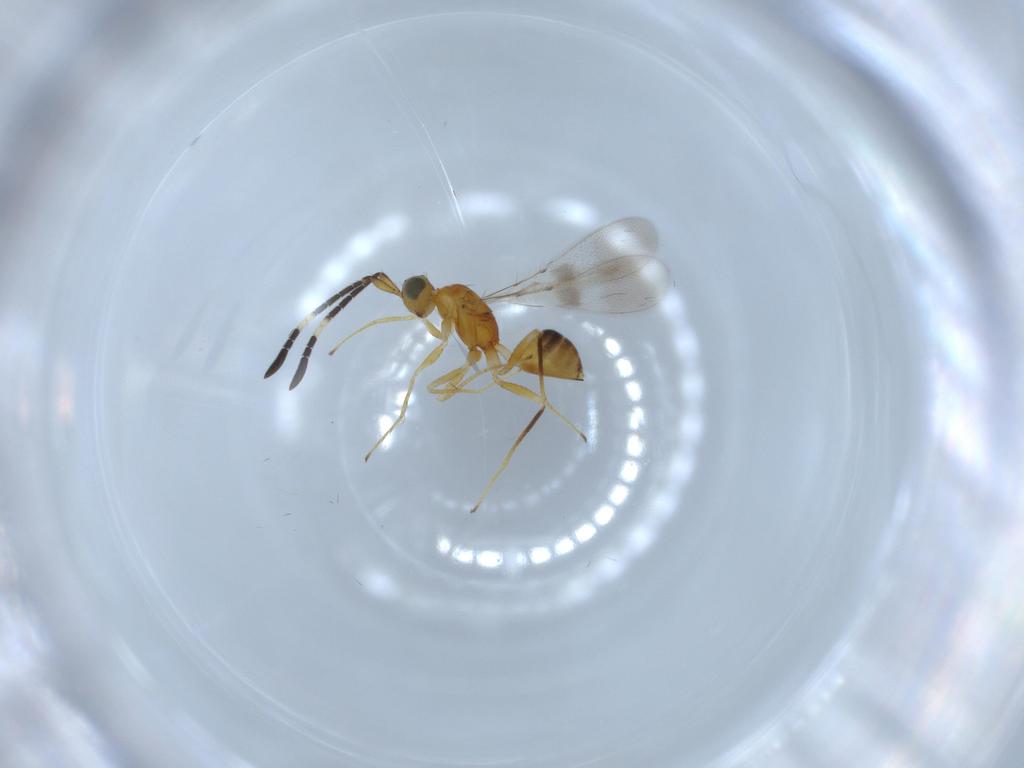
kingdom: Animalia
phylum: Arthropoda
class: Insecta
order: Hymenoptera
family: Mymaridae
